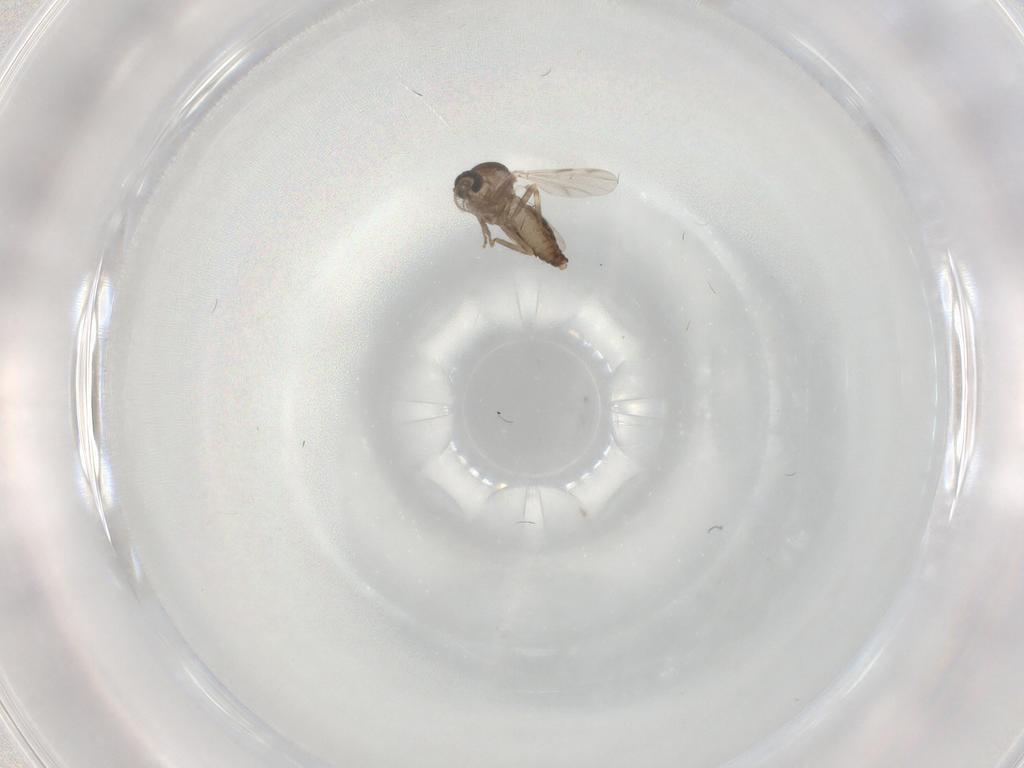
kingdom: Animalia
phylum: Arthropoda
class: Insecta
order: Diptera
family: Ceratopogonidae
